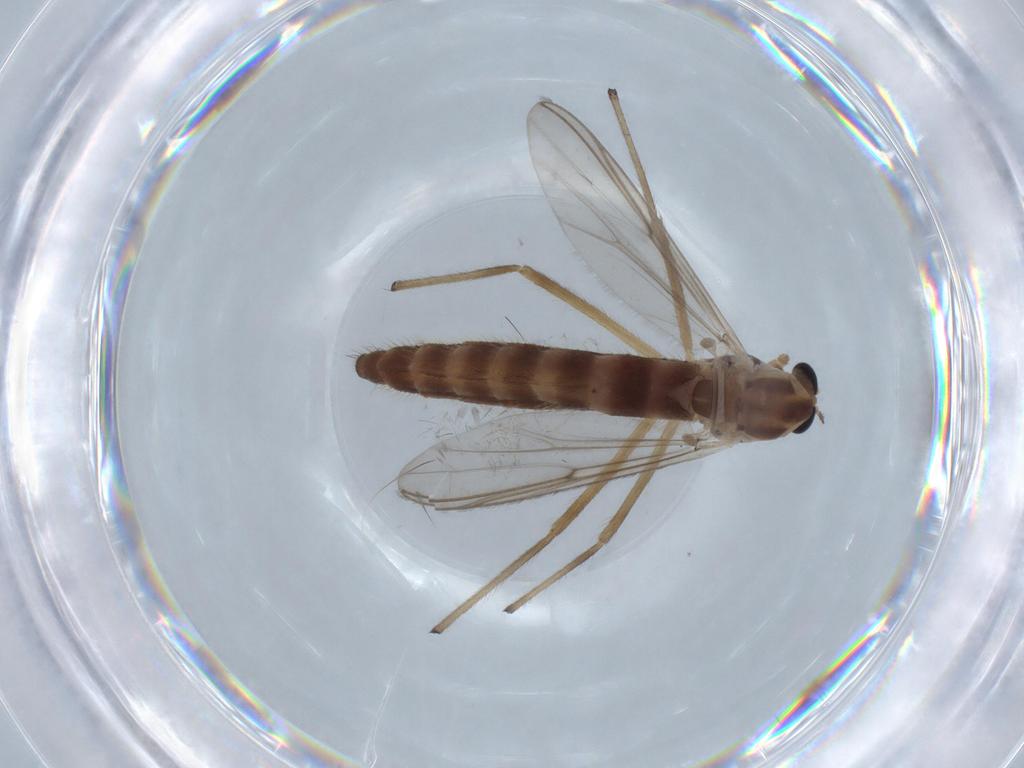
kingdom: Animalia
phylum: Arthropoda
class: Insecta
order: Diptera
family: Chironomidae
